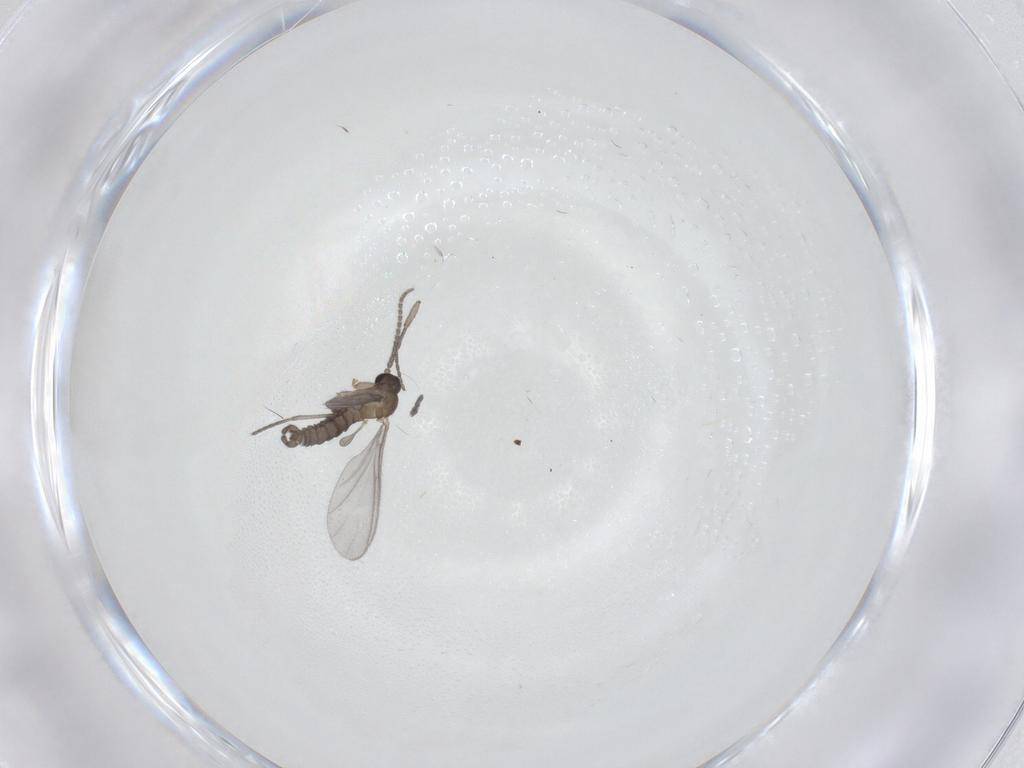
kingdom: Animalia
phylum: Arthropoda
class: Insecta
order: Diptera
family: Sciaridae
